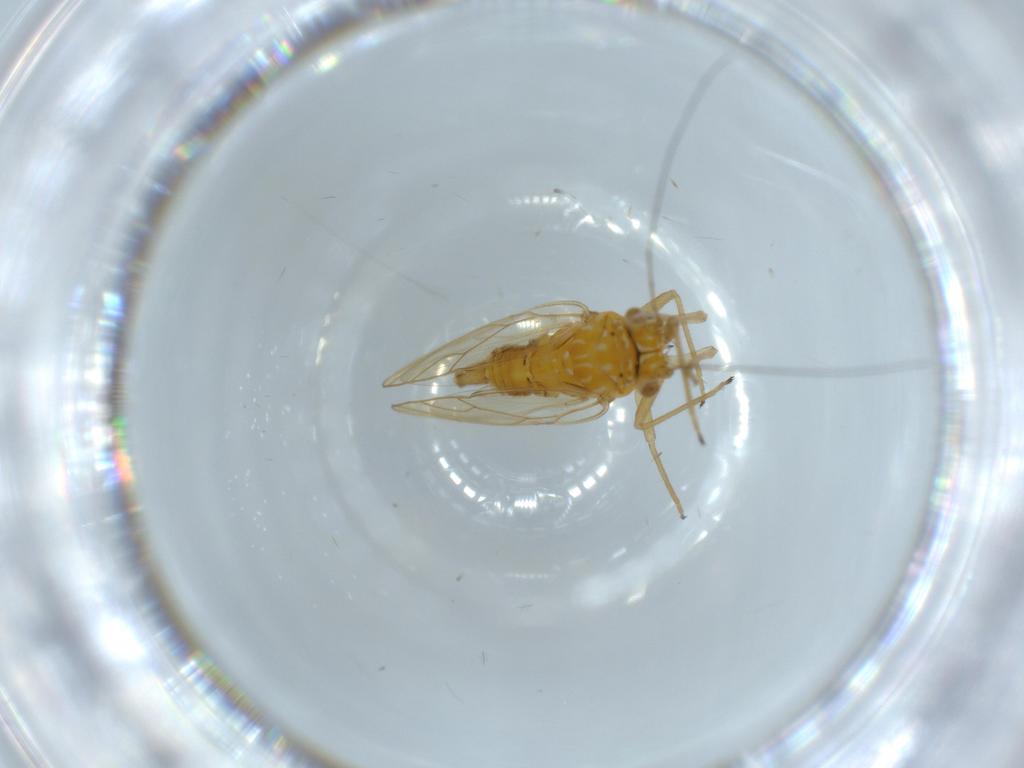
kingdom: Animalia
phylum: Arthropoda
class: Insecta
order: Hemiptera
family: Psyllidae
